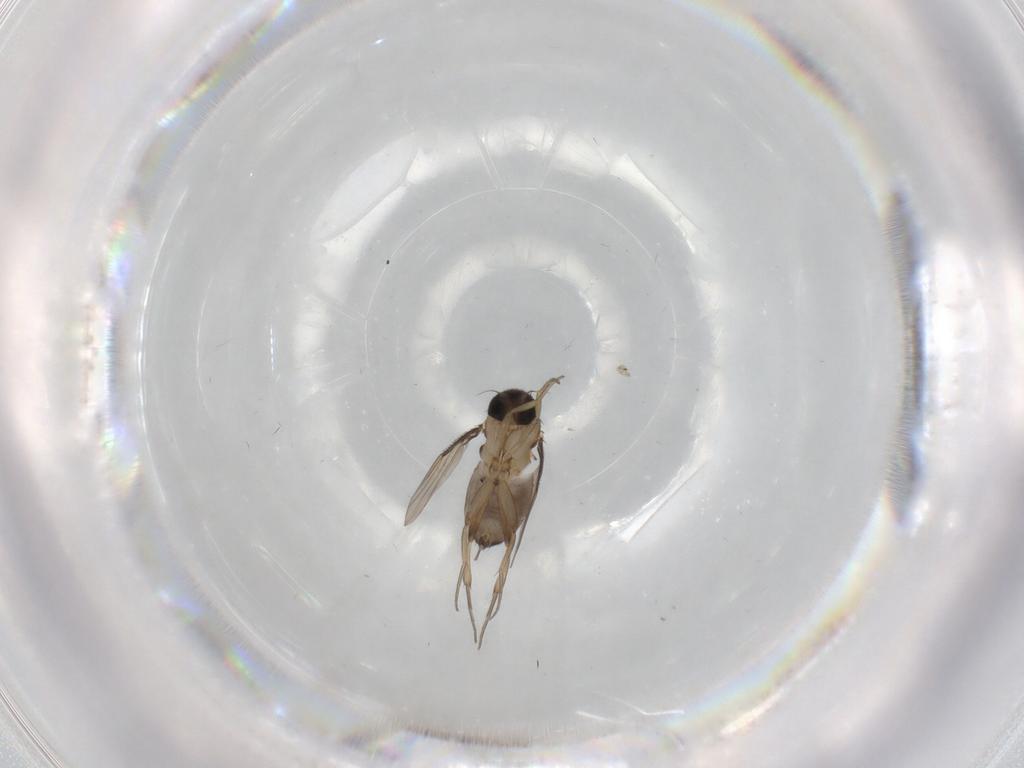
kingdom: Animalia
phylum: Arthropoda
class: Insecta
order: Diptera
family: Phoridae
